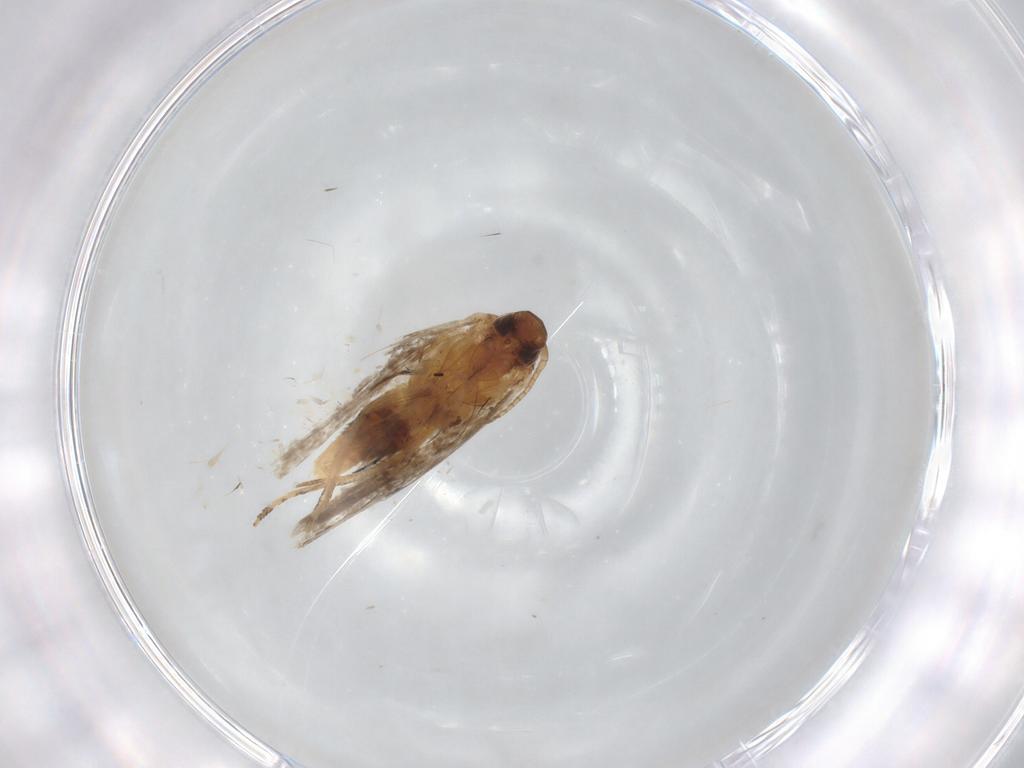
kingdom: Animalia
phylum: Arthropoda
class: Insecta
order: Lepidoptera
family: Gelechiidae
